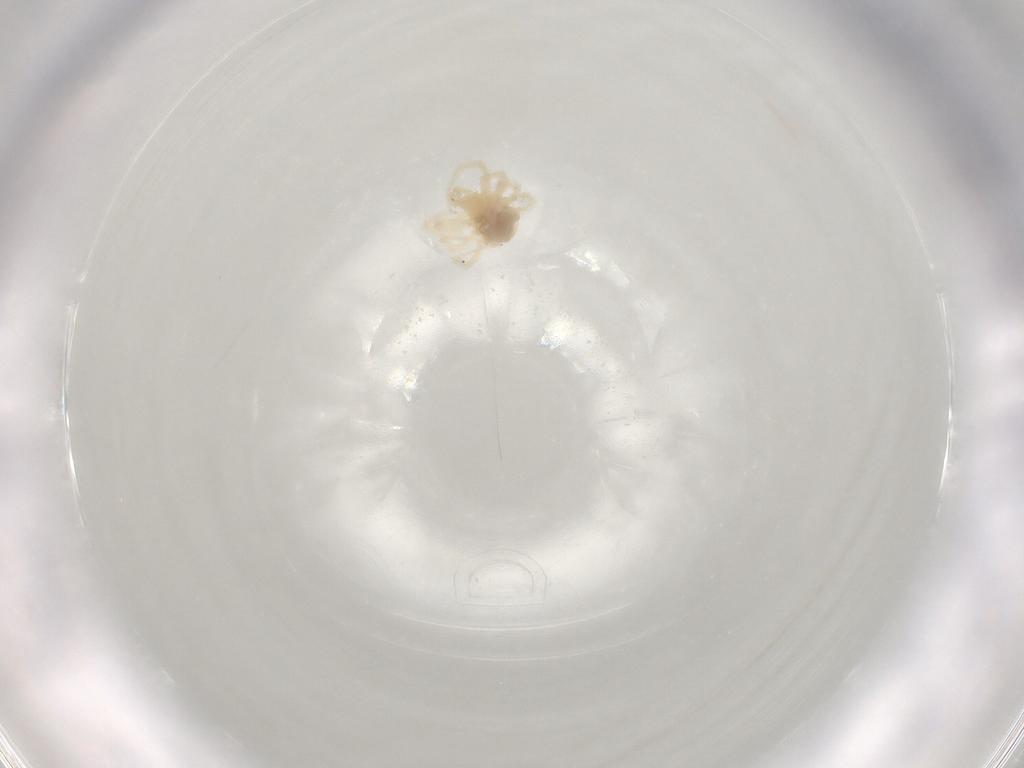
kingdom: Animalia
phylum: Arthropoda
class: Arachnida
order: Trombidiformes
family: Anystidae
